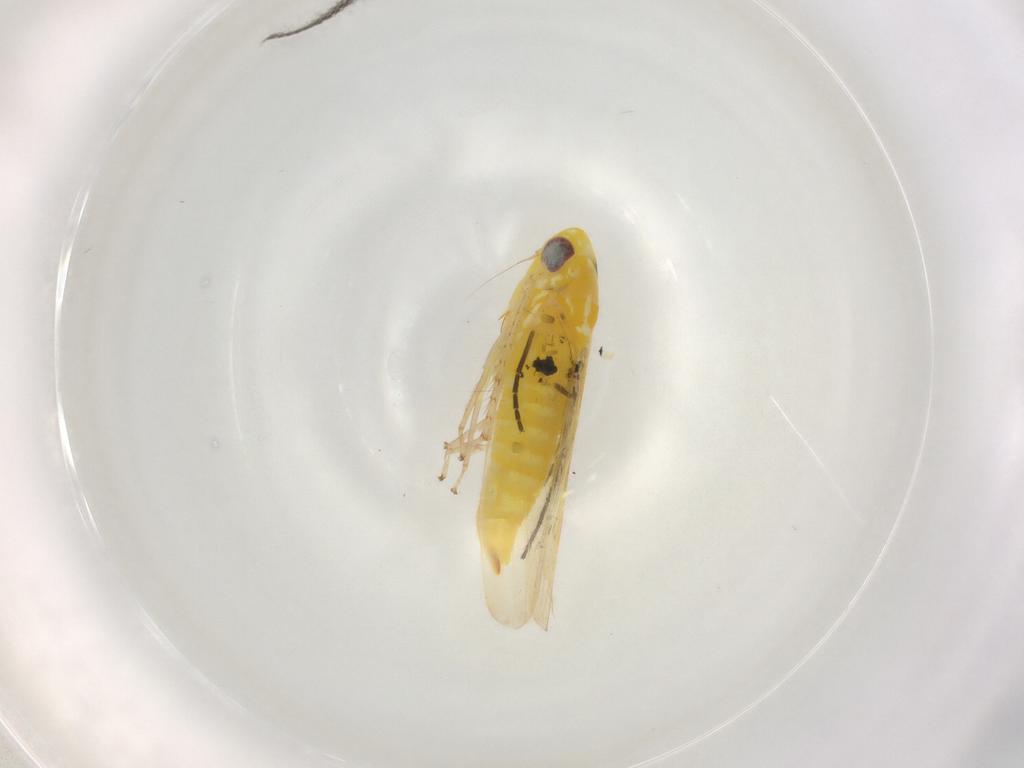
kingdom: Animalia
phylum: Arthropoda
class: Insecta
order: Hemiptera
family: Cicadellidae
